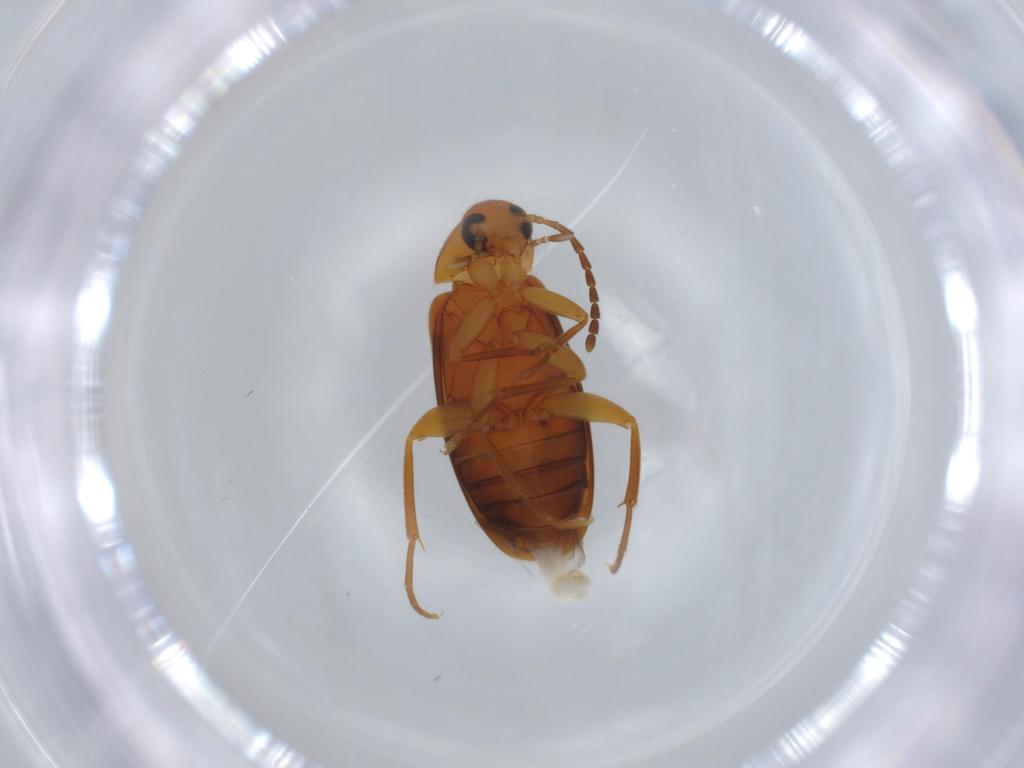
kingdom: Animalia
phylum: Arthropoda
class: Insecta
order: Coleoptera
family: Scraptiidae
